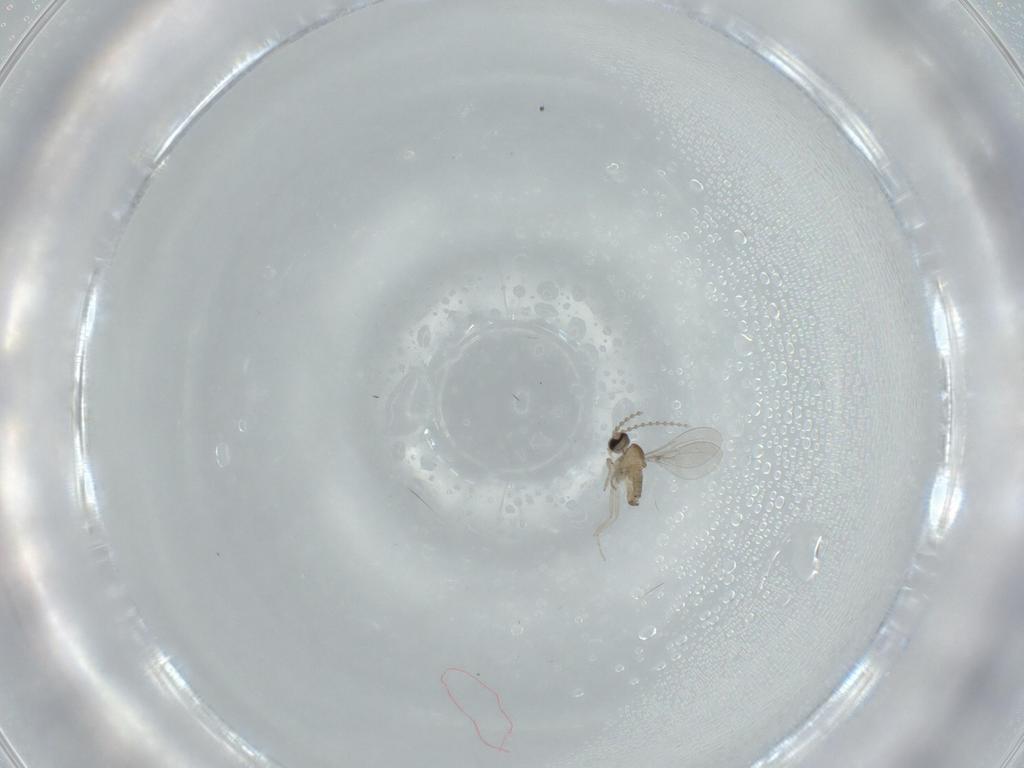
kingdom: Animalia
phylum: Arthropoda
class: Insecta
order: Diptera
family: Cecidomyiidae
